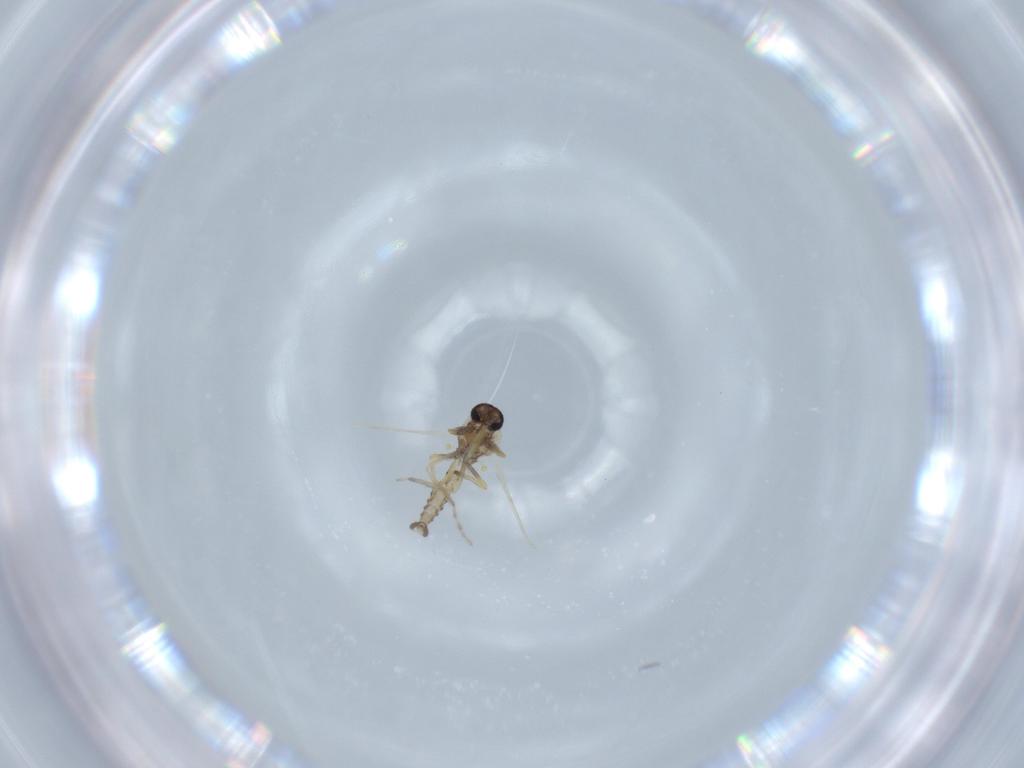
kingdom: Animalia
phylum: Arthropoda
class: Insecta
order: Diptera
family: Ceratopogonidae
